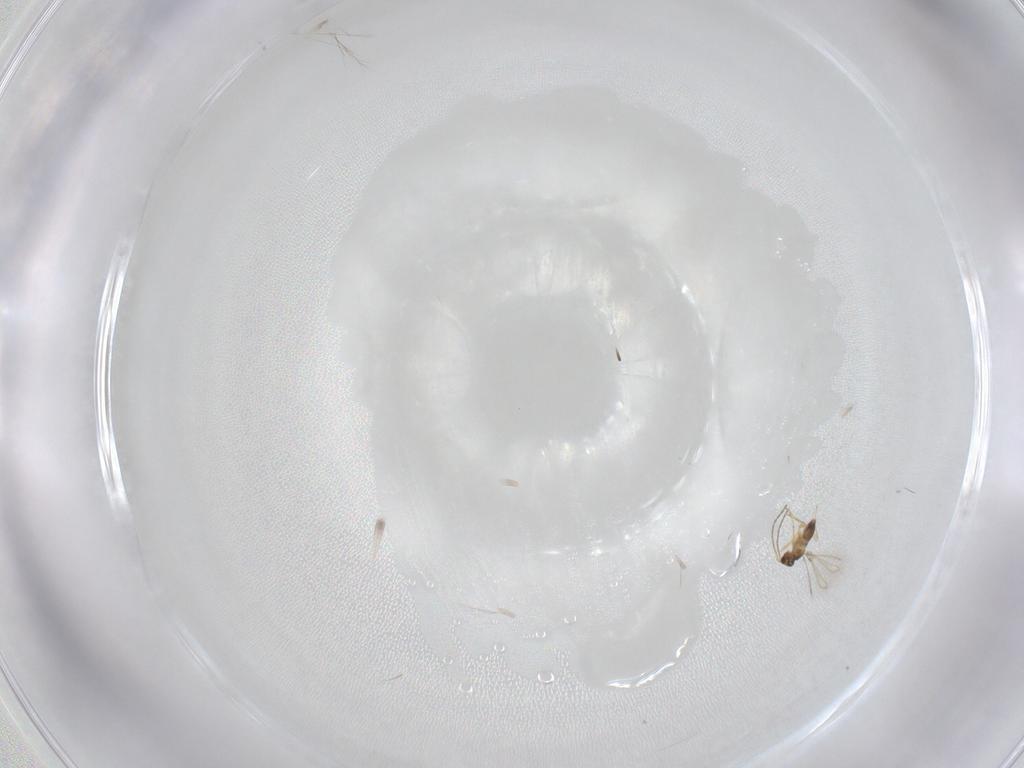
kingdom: Animalia
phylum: Arthropoda
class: Insecta
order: Hymenoptera
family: Mymaridae
